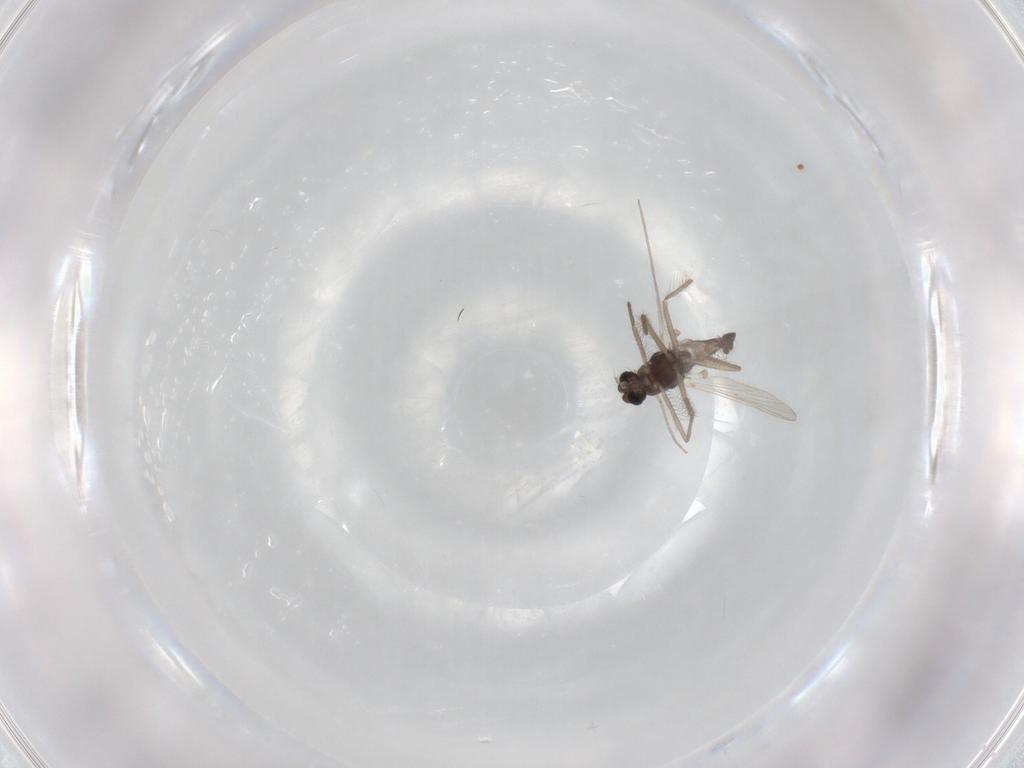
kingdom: Animalia
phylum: Arthropoda
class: Insecta
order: Diptera
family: Chironomidae
